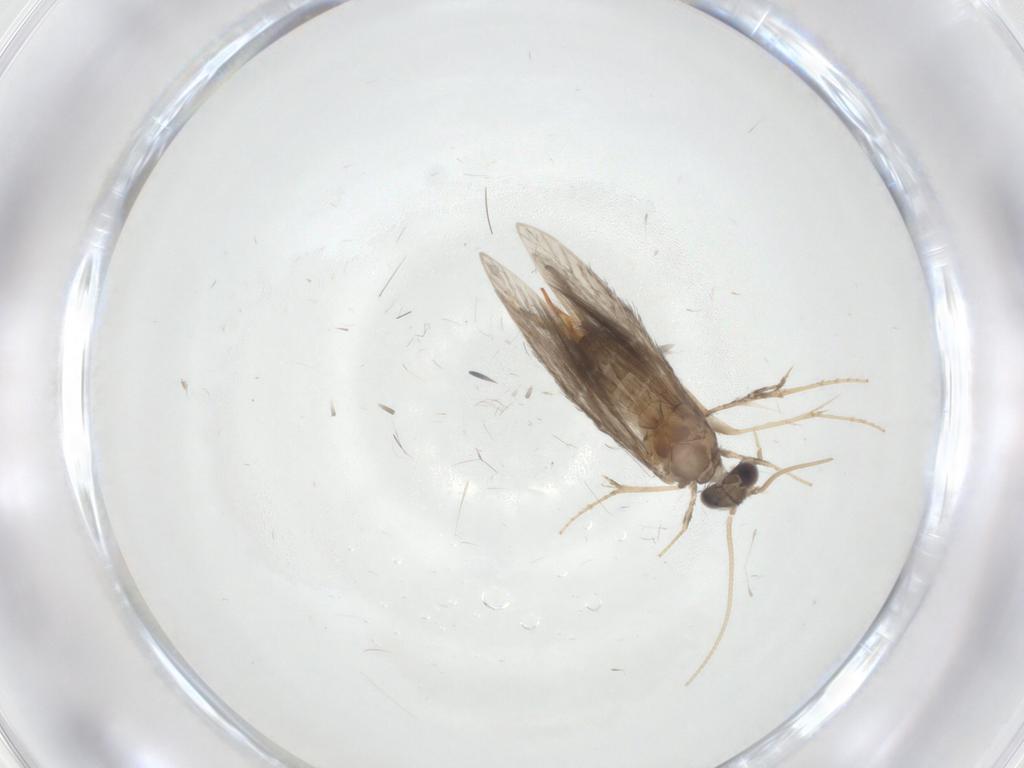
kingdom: Animalia
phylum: Arthropoda
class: Insecta
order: Trichoptera
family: Hydroptilidae
